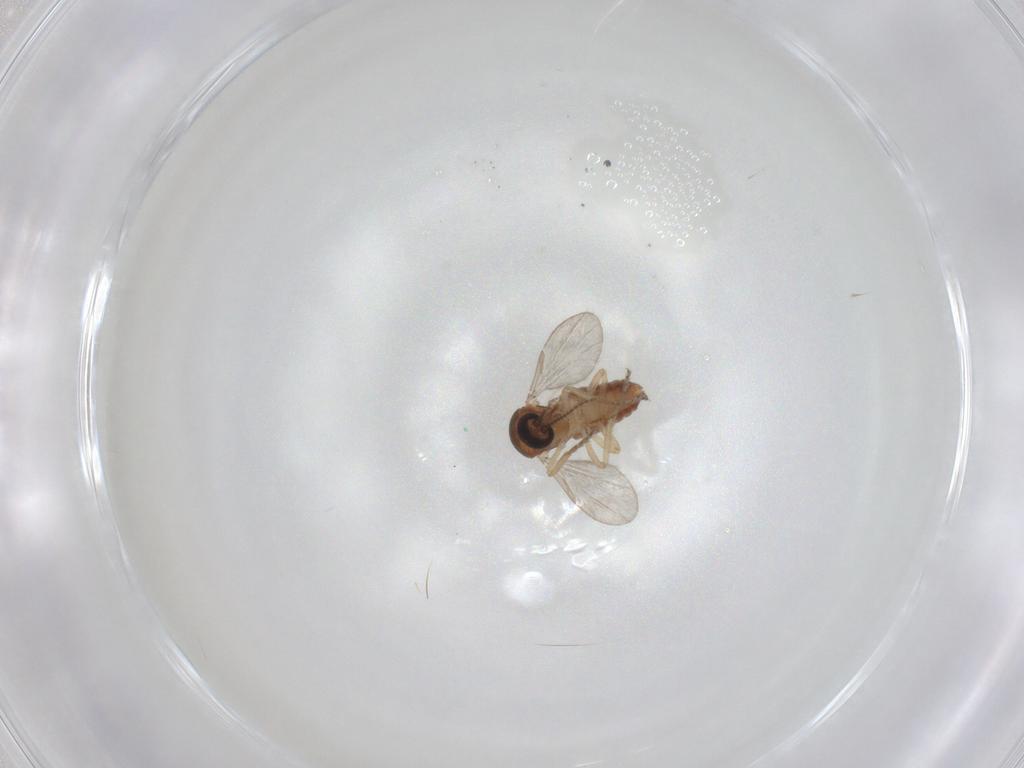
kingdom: Animalia
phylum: Arthropoda
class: Insecta
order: Diptera
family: Ceratopogonidae
